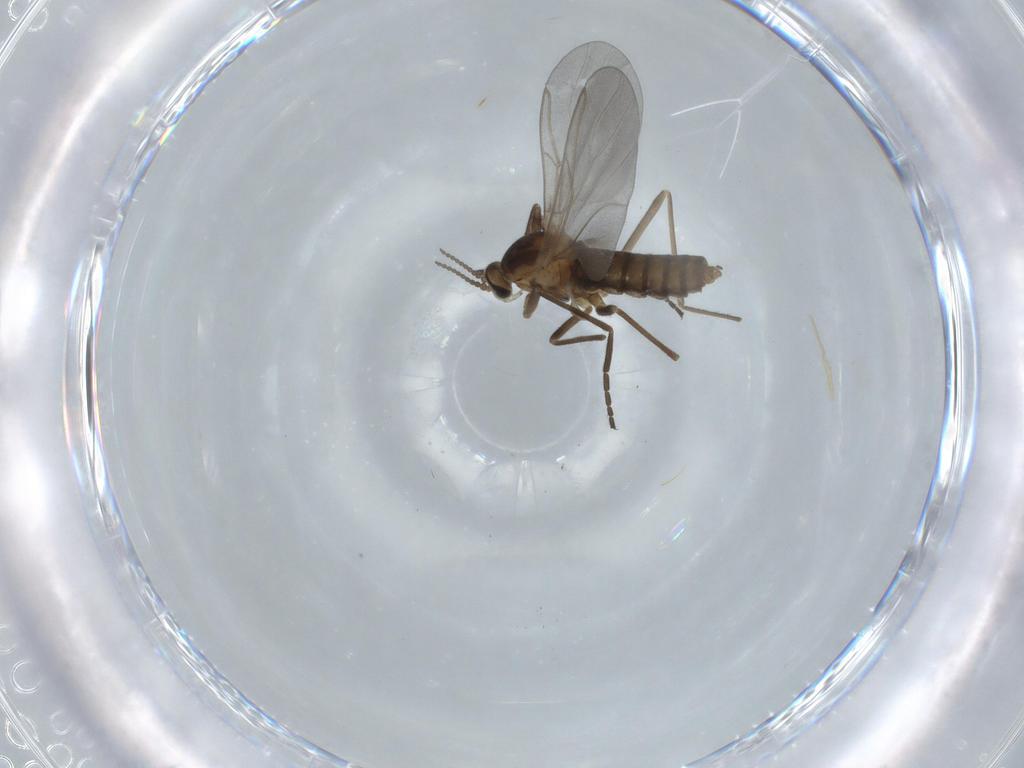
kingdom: Animalia
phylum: Arthropoda
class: Insecta
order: Diptera
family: Cecidomyiidae
